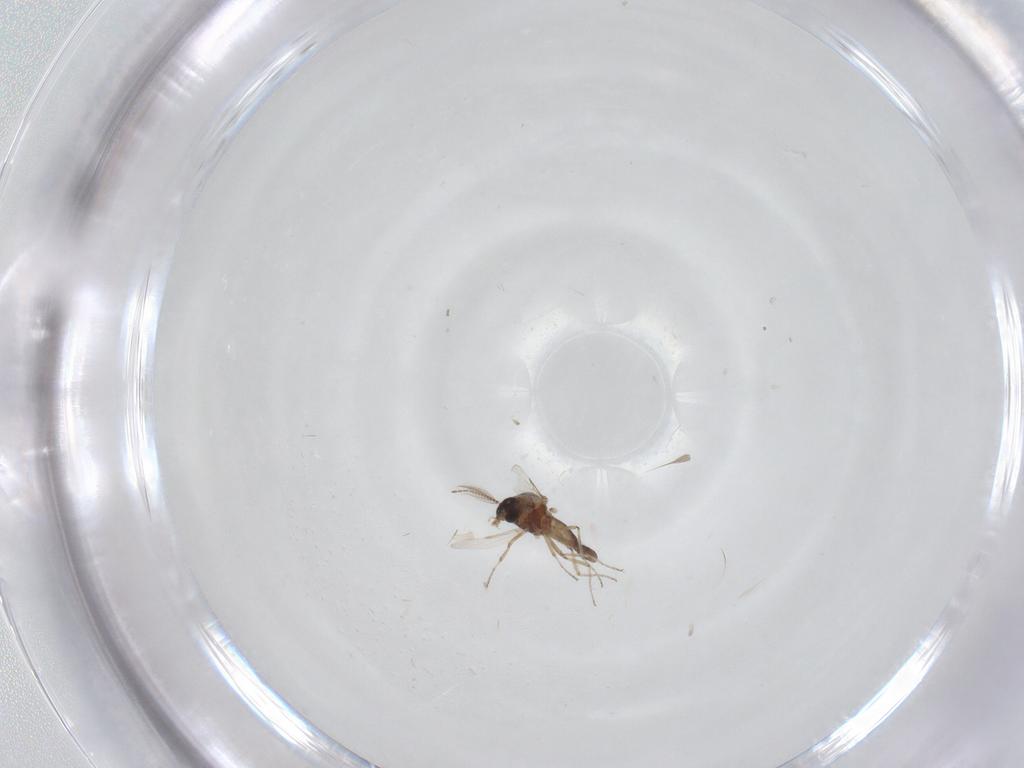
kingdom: Animalia
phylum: Arthropoda
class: Insecta
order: Diptera
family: Ceratopogonidae
